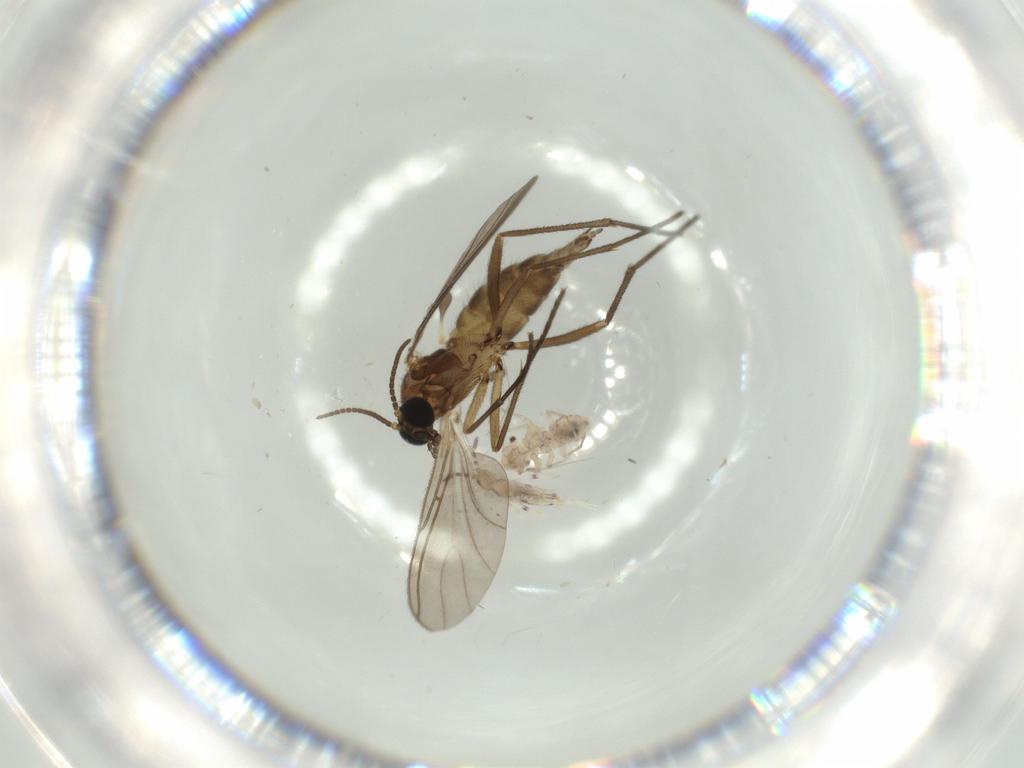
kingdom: Animalia
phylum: Arthropoda
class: Insecta
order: Diptera
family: Sciaridae
